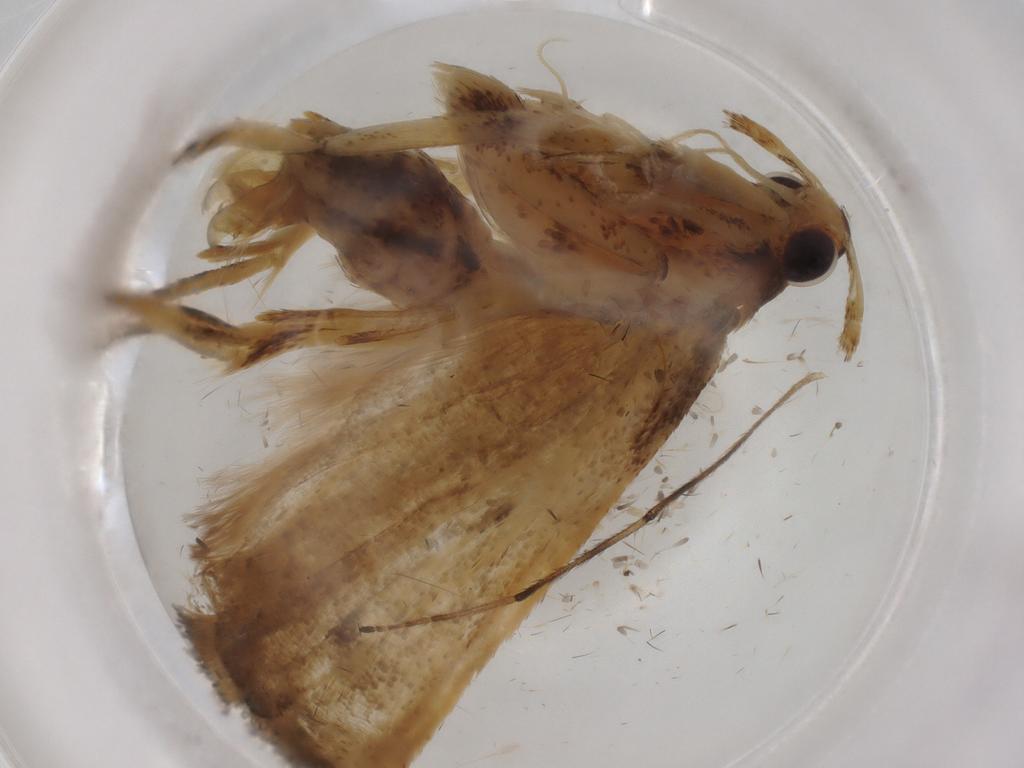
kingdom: Animalia
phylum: Arthropoda
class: Insecta
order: Lepidoptera
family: Lecithoceridae
